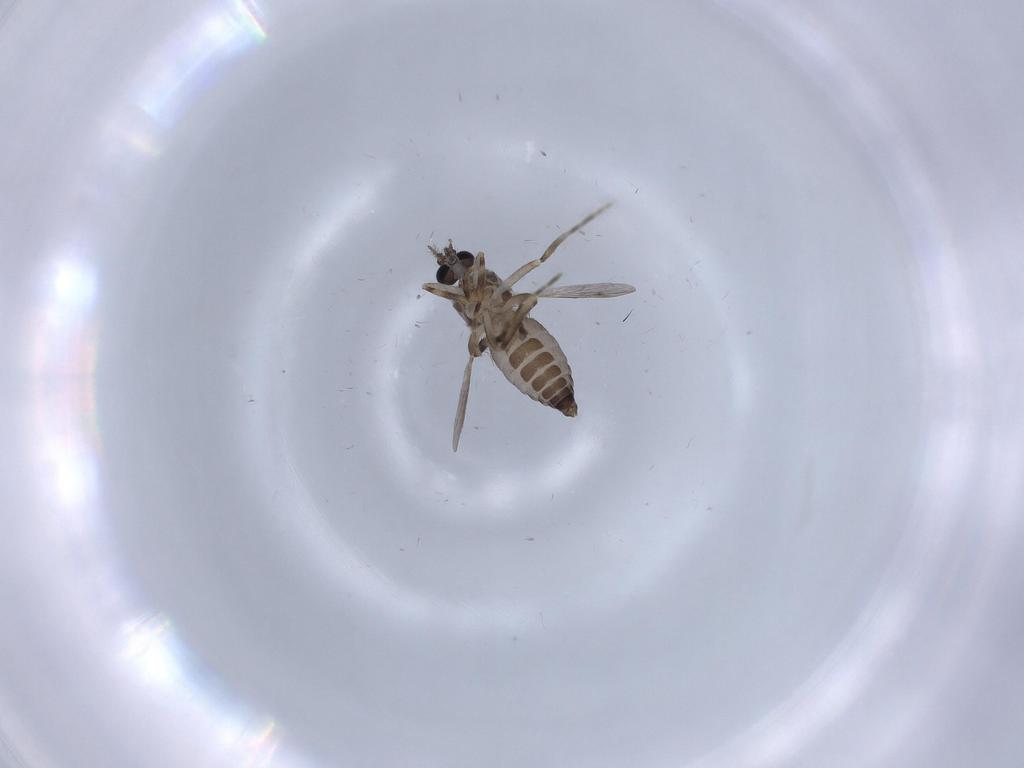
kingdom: Animalia
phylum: Arthropoda
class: Insecta
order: Diptera
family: Ceratopogonidae
